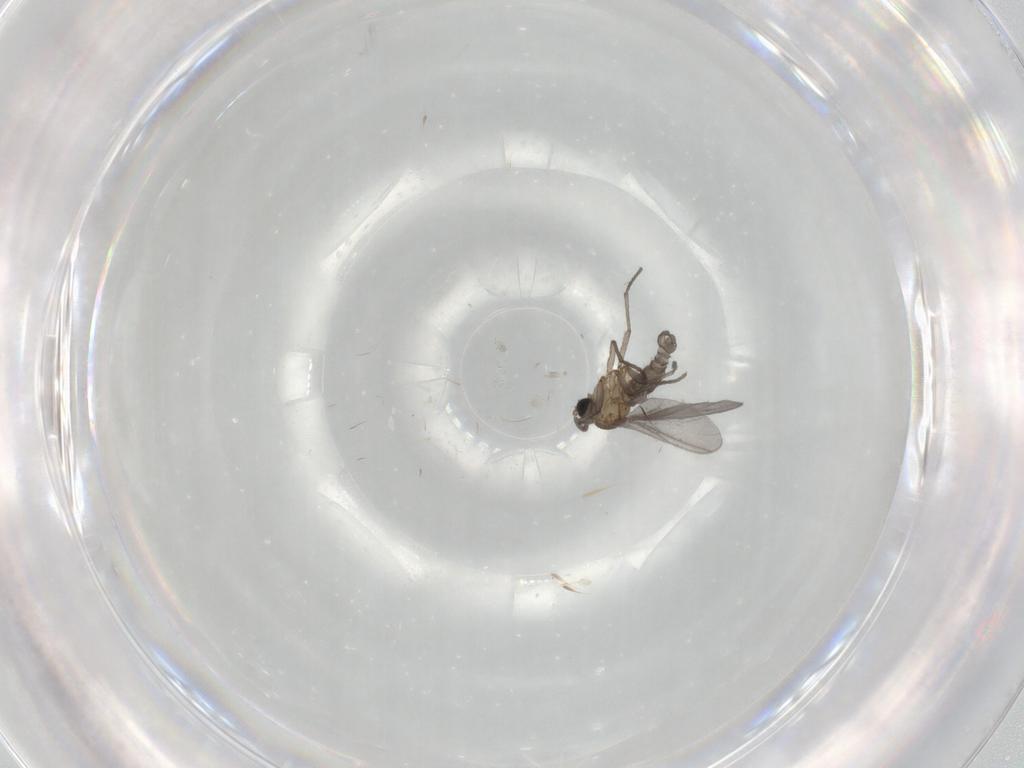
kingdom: Animalia
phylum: Arthropoda
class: Insecta
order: Diptera
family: Sciaridae
